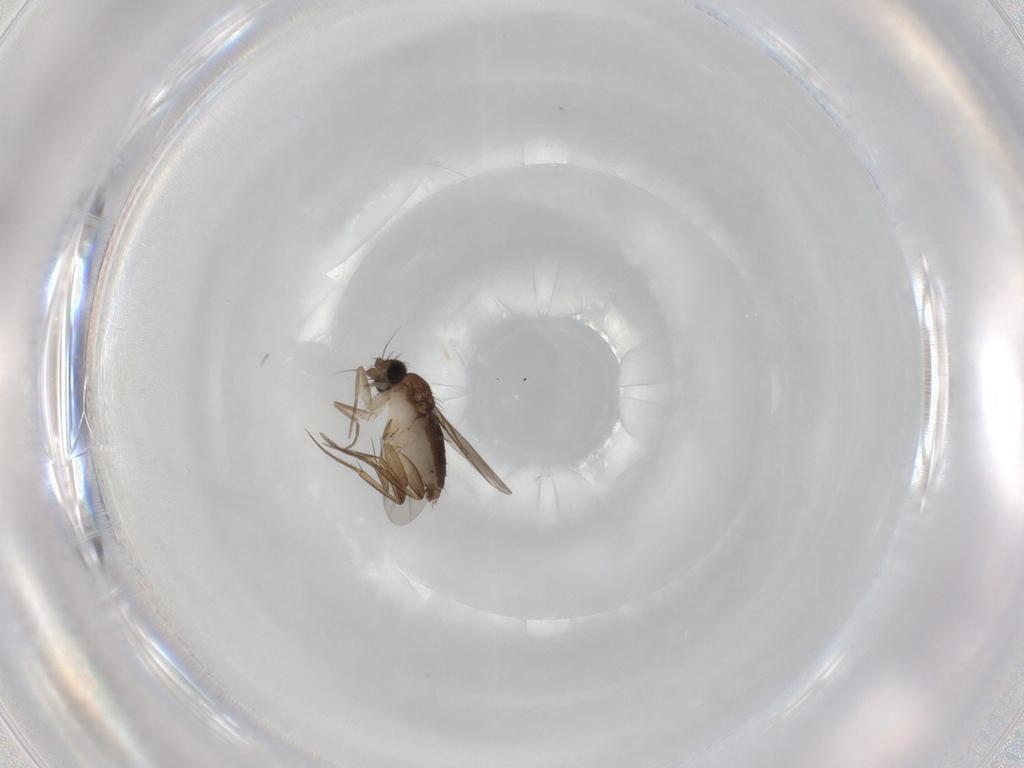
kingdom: Animalia
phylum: Arthropoda
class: Insecta
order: Diptera
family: Phoridae
